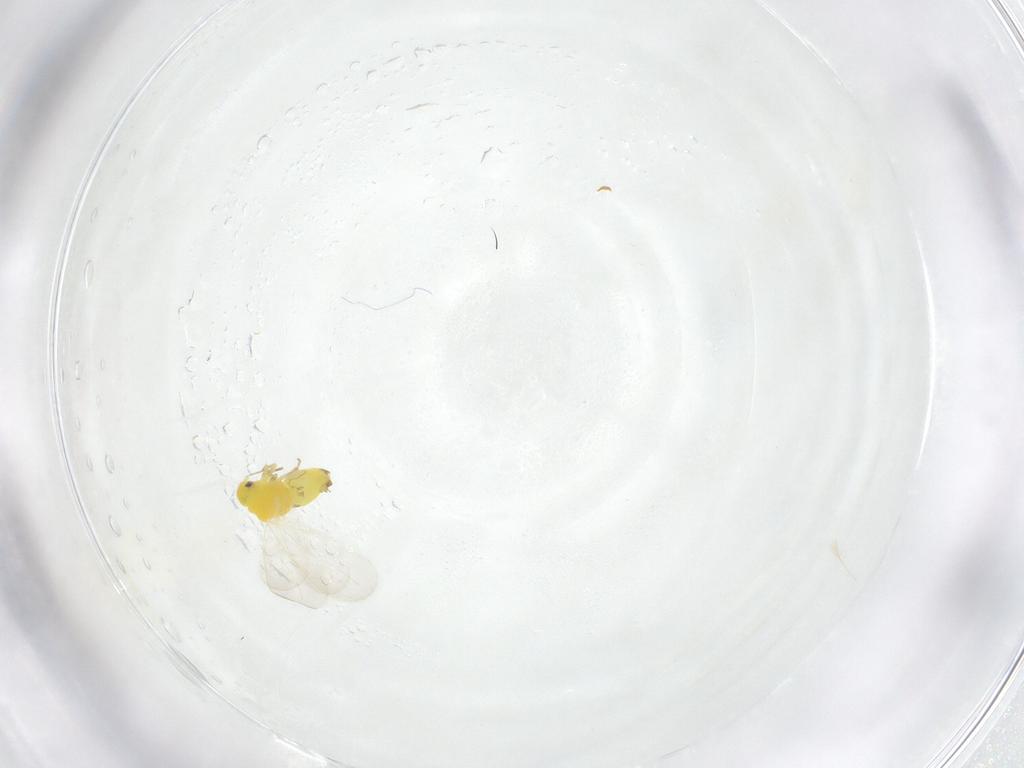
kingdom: Animalia
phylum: Arthropoda
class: Insecta
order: Hemiptera
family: Aleyrodidae
